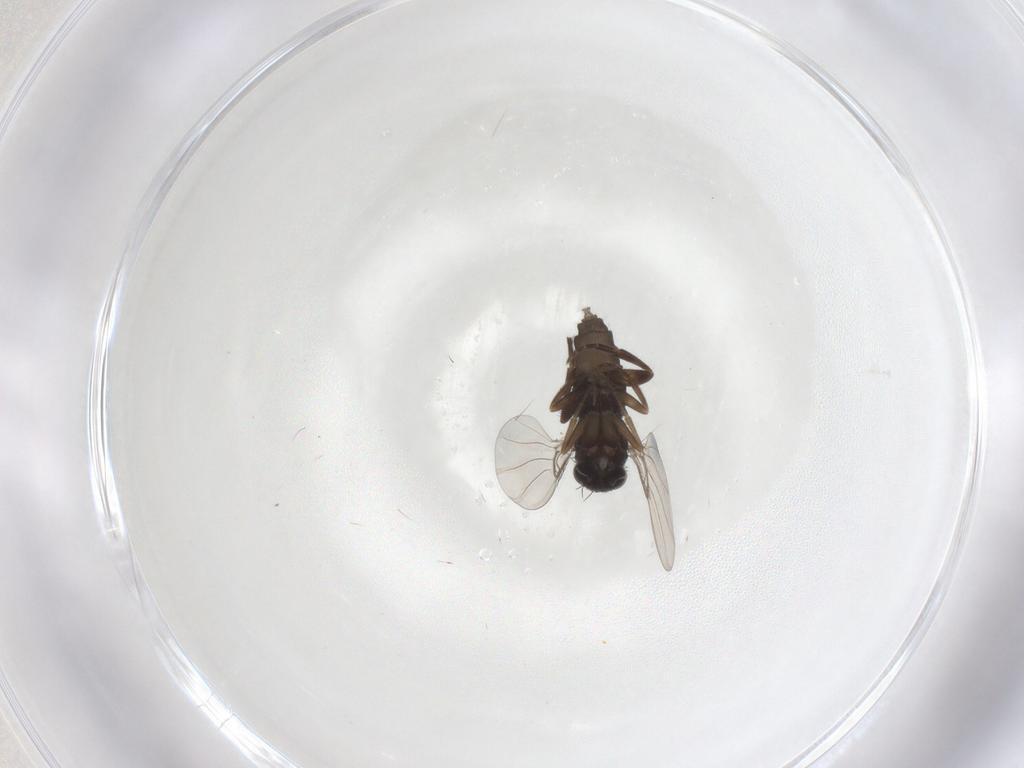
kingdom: Animalia
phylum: Arthropoda
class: Insecta
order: Diptera
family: Phoridae
